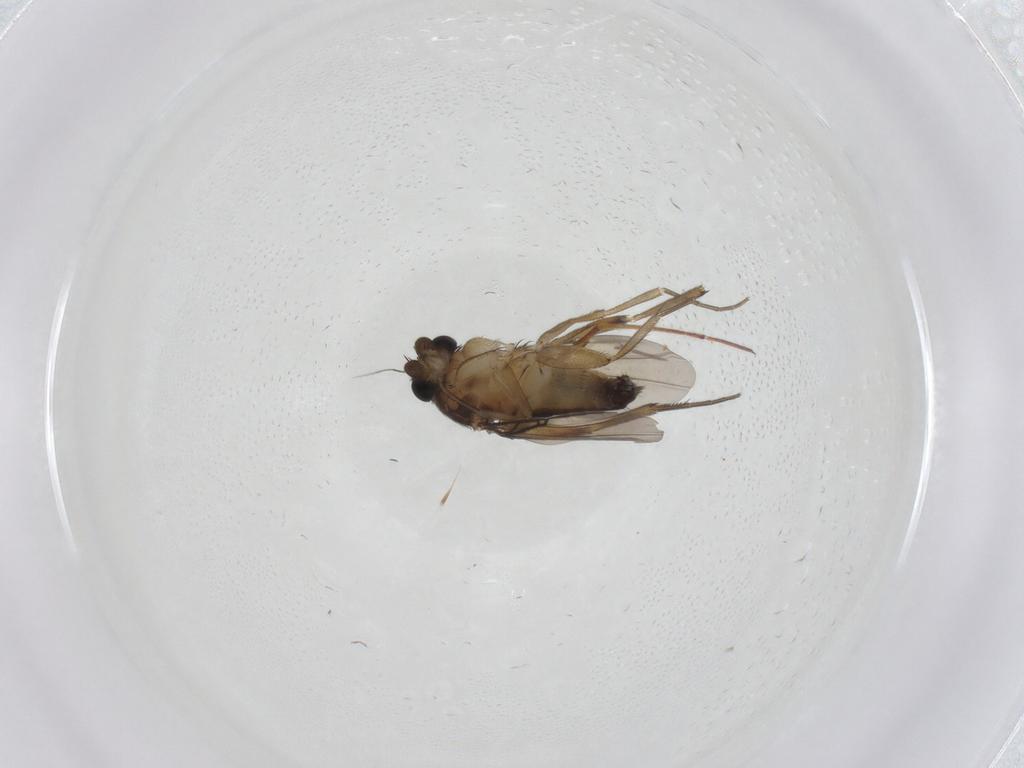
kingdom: Animalia
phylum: Arthropoda
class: Insecta
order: Diptera
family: Phoridae
